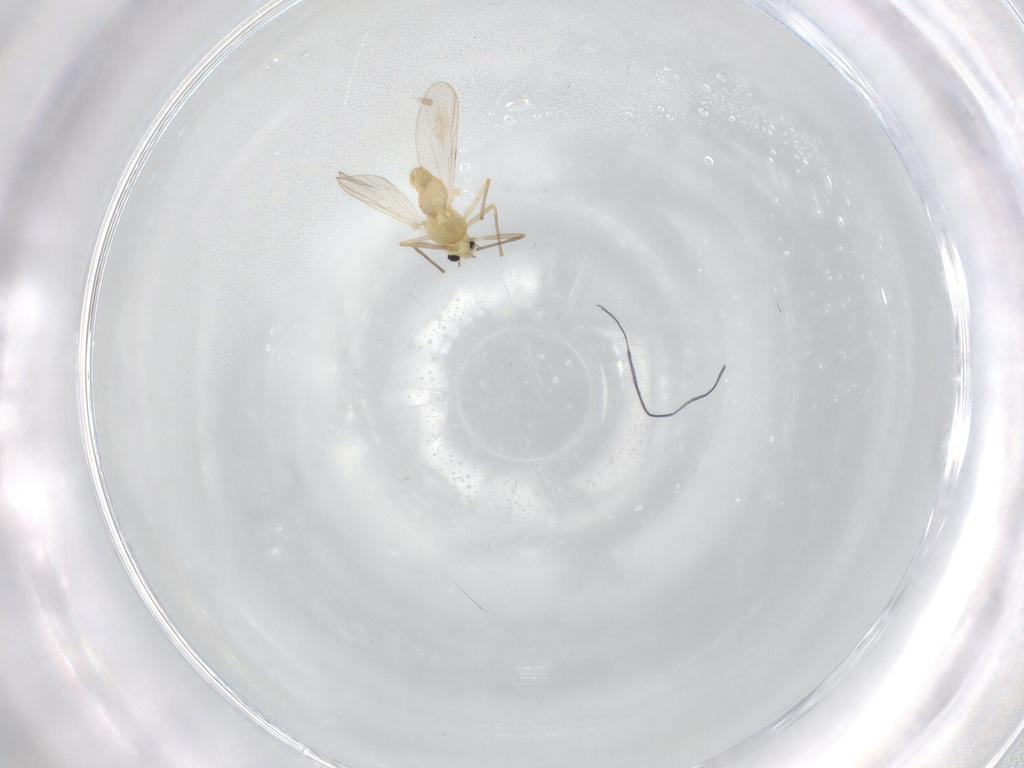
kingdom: Animalia
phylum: Arthropoda
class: Insecta
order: Diptera
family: Chironomidae
